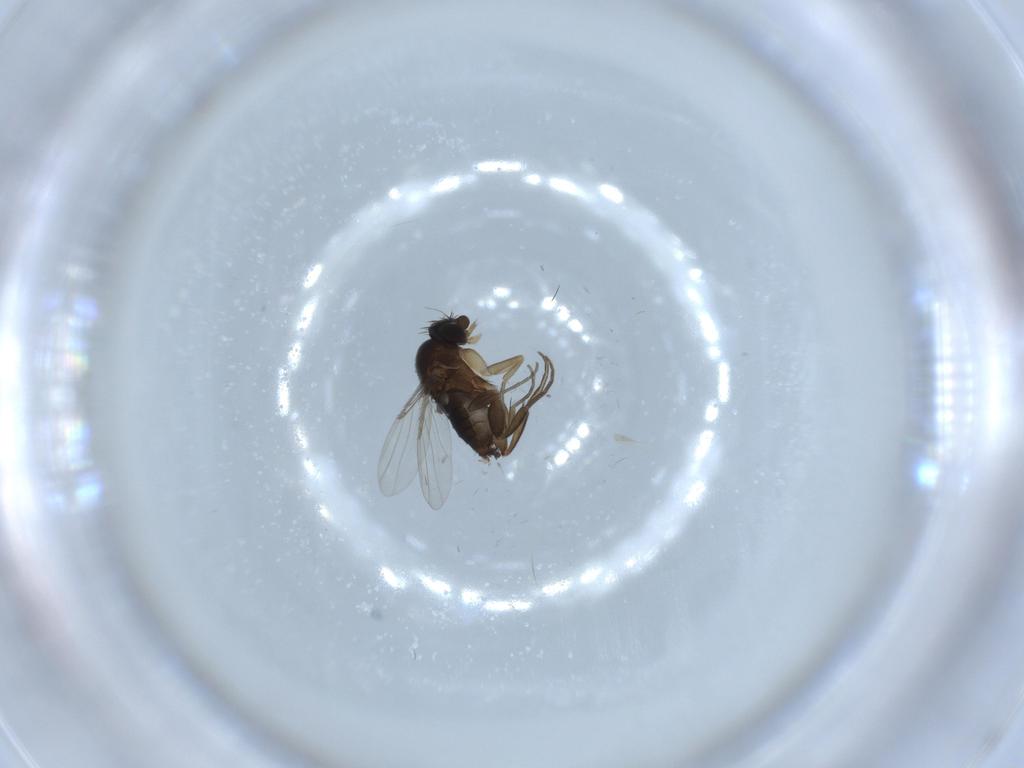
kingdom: Animalia
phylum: Arthropoda
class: Insecta
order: Diptera
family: Phoridae
